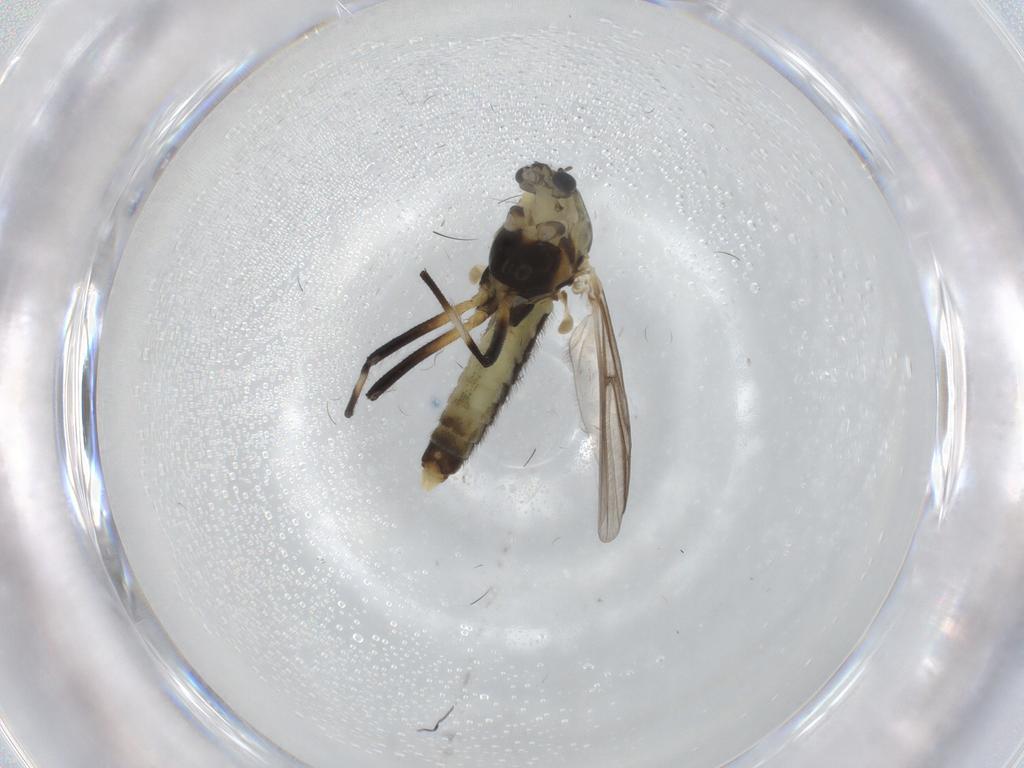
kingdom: Animalia
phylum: Arthropoda
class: Insecta
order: Diptera
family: Cecidomyiidae
